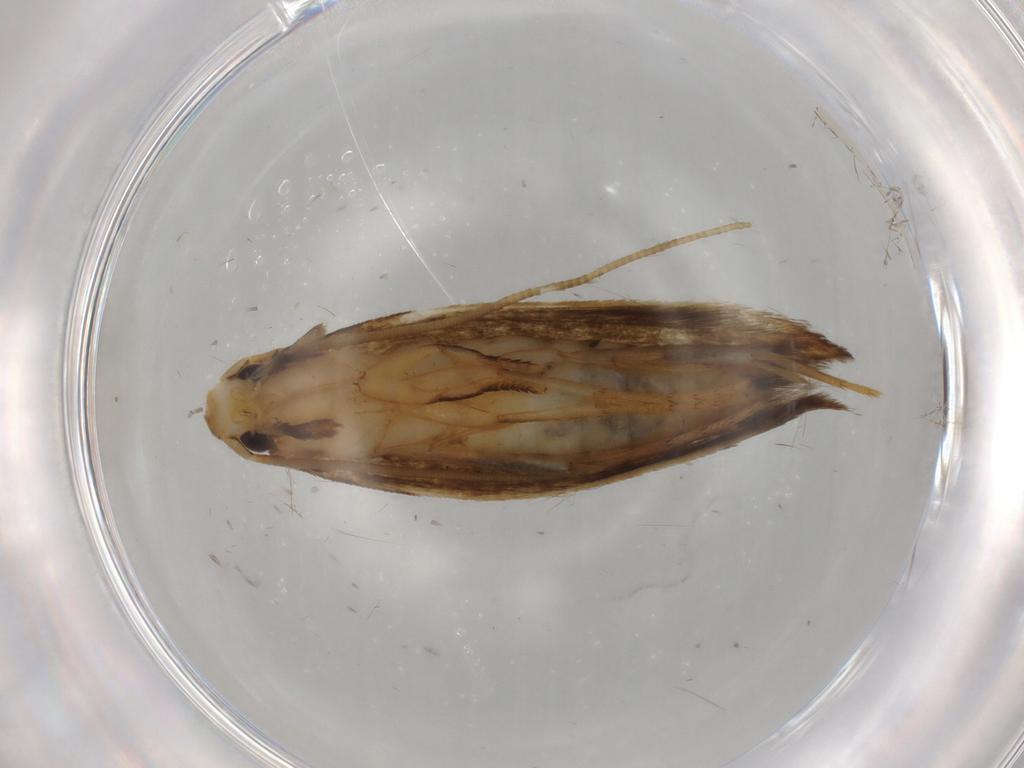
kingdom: Animalia
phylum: Arthropoda
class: Insecta
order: Lepidoptera
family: Tineidae
